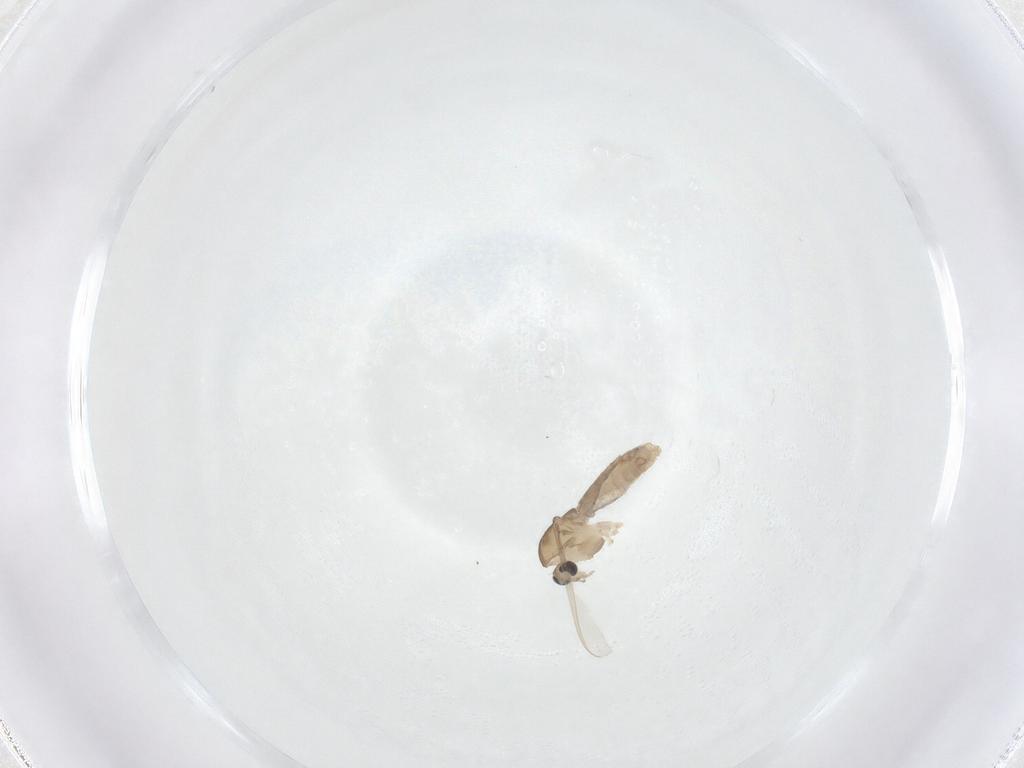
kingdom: Animalia
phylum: Arthropoda
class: Insecta
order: Diptera
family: Chironomidae
